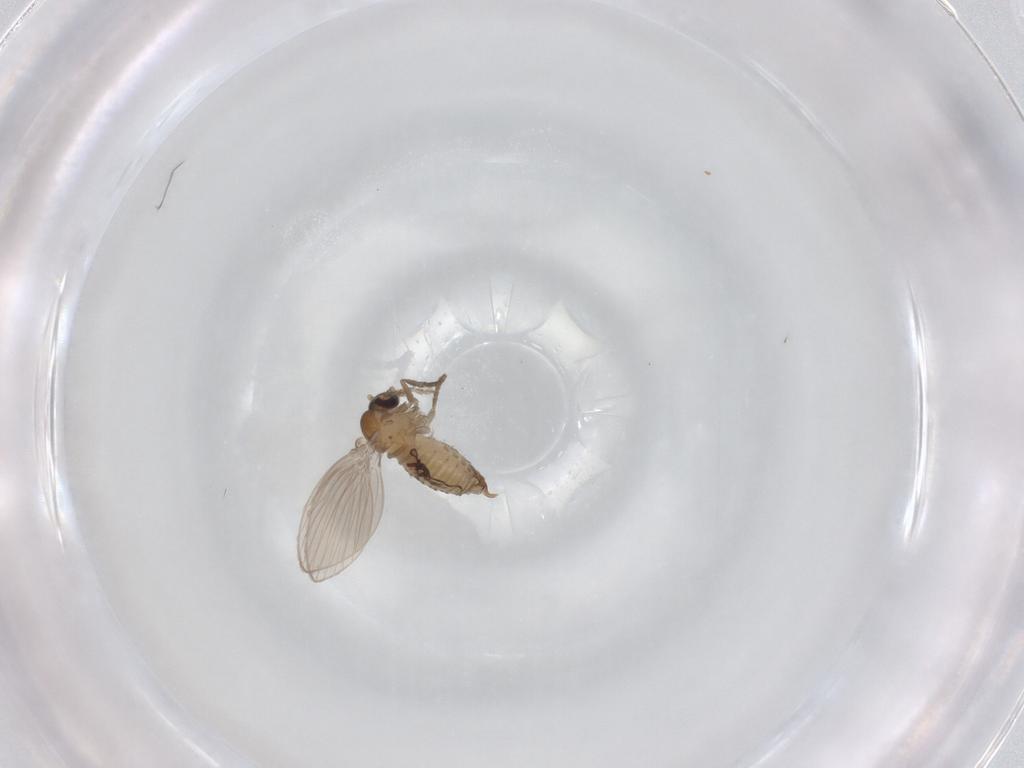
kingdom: Animalia
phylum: Arthropoda
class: Insecta
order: Diptera
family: Psychodidae
